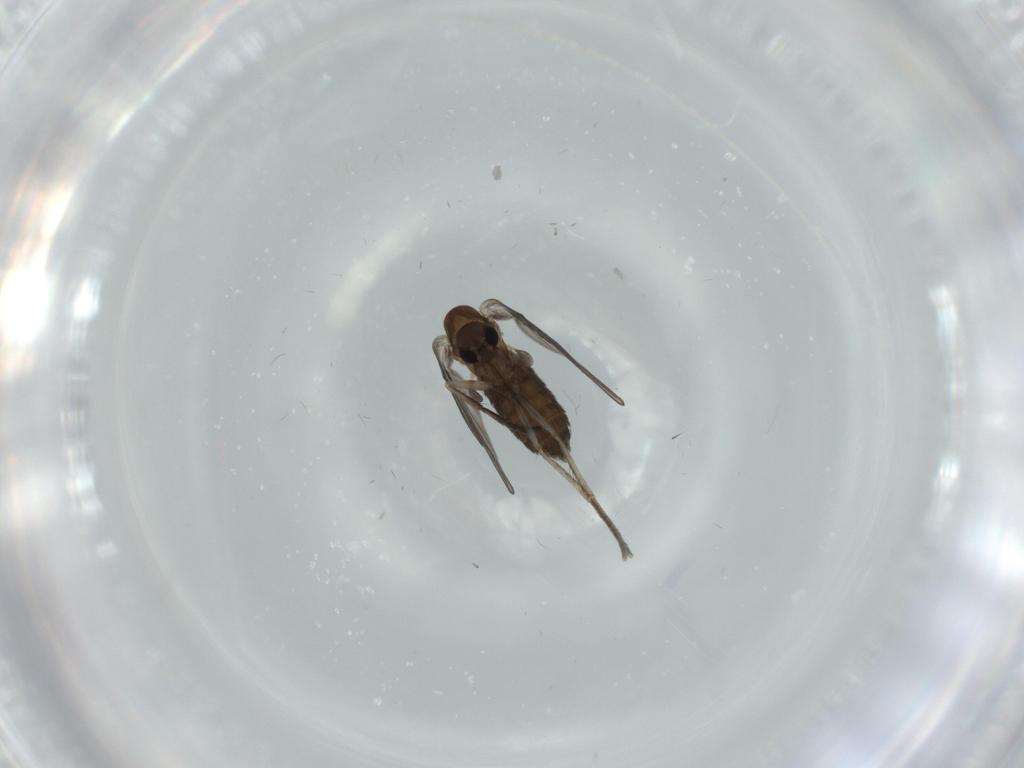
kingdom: Animalia
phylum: Arthropoda
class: Insecta
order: Diptera
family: Psychodidae
